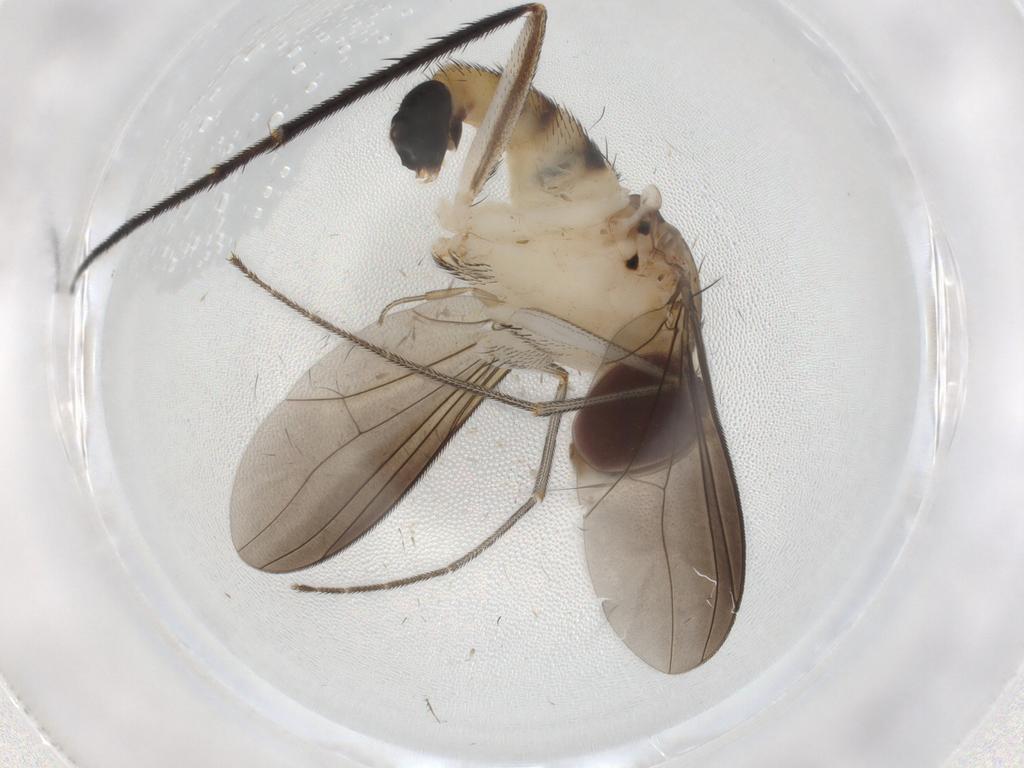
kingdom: Animalia
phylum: Arthropoda
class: Insecta
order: Diptera
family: Dolichopodidae
